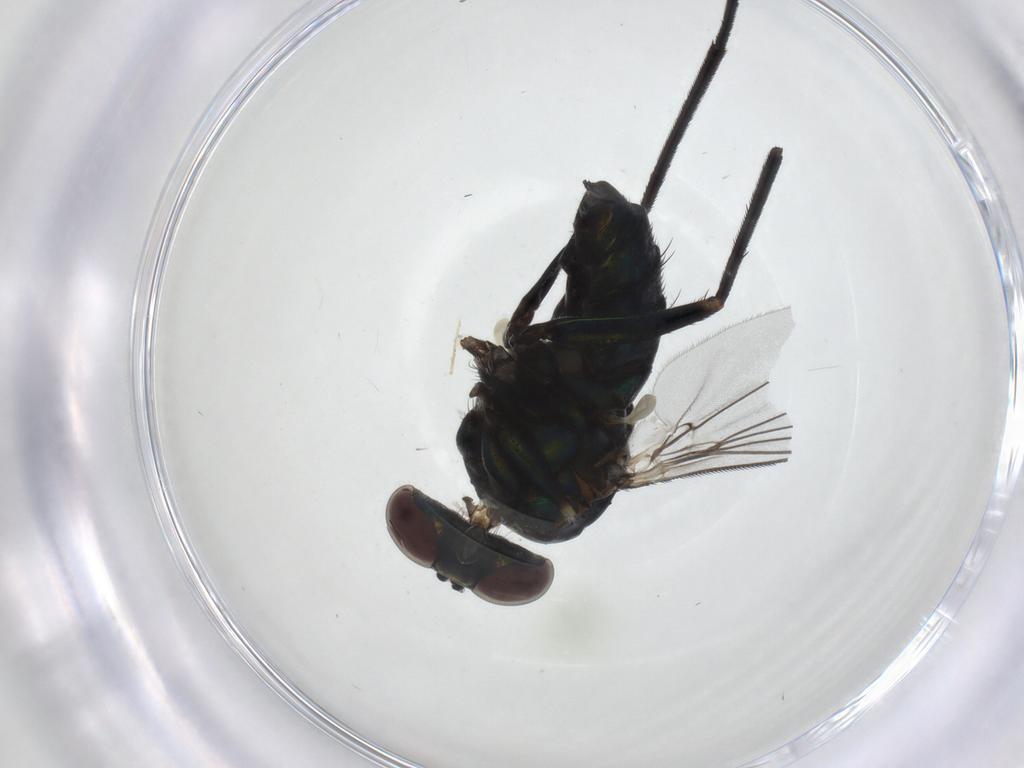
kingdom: Animalia
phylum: Arthropoda
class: Insecta
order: Diptera
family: Dolichopodidae
